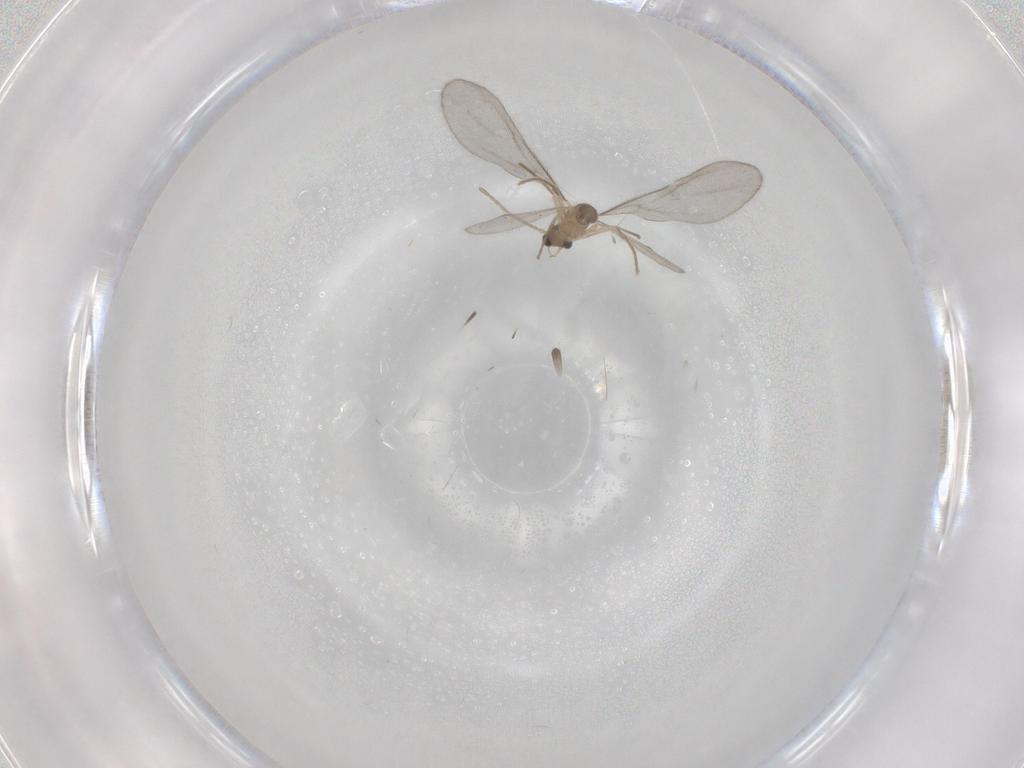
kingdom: Animalia
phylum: Arthropoda
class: Insecta
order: Hymenoptera
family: Formicidae
